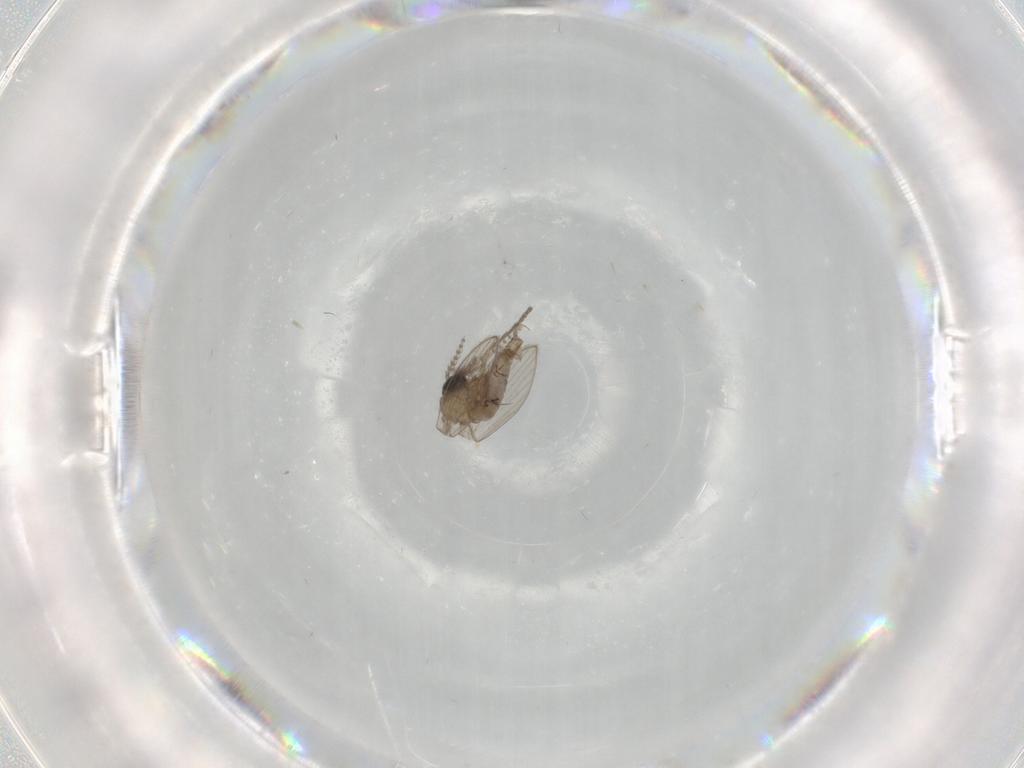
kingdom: Animalia
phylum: Arthropoda
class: Insecta
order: Diptera
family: Psychodidae
